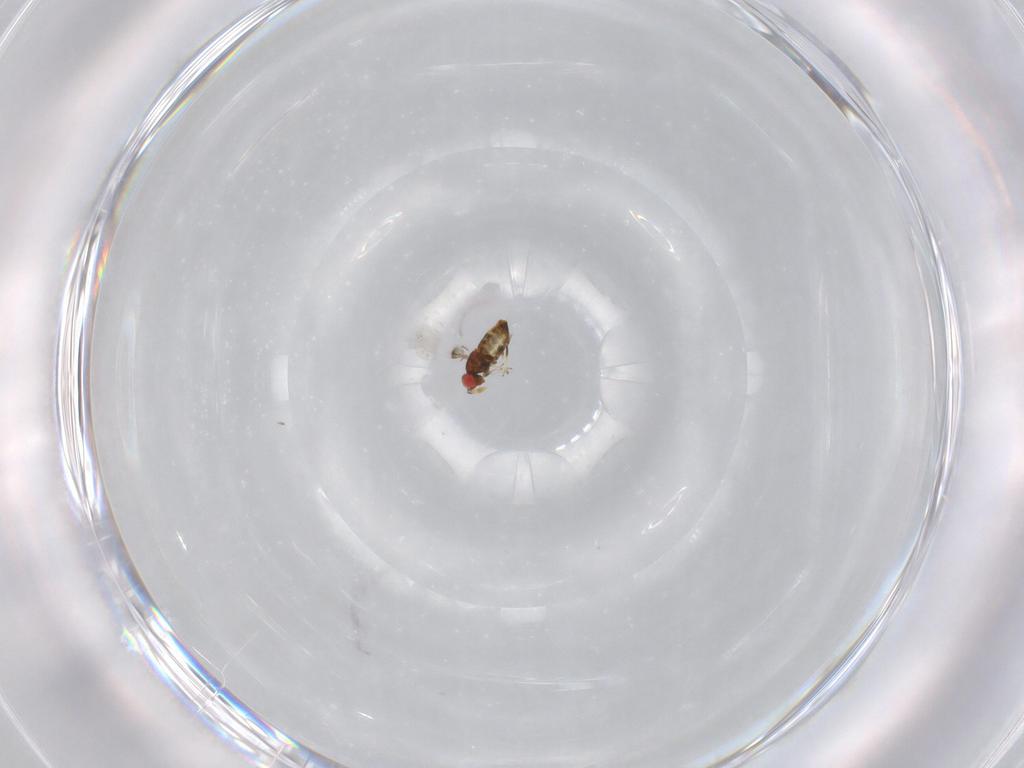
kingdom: Animalia
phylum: Arthropoda
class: Insecta
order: Hymenoptera
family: Trichogrammatidae
